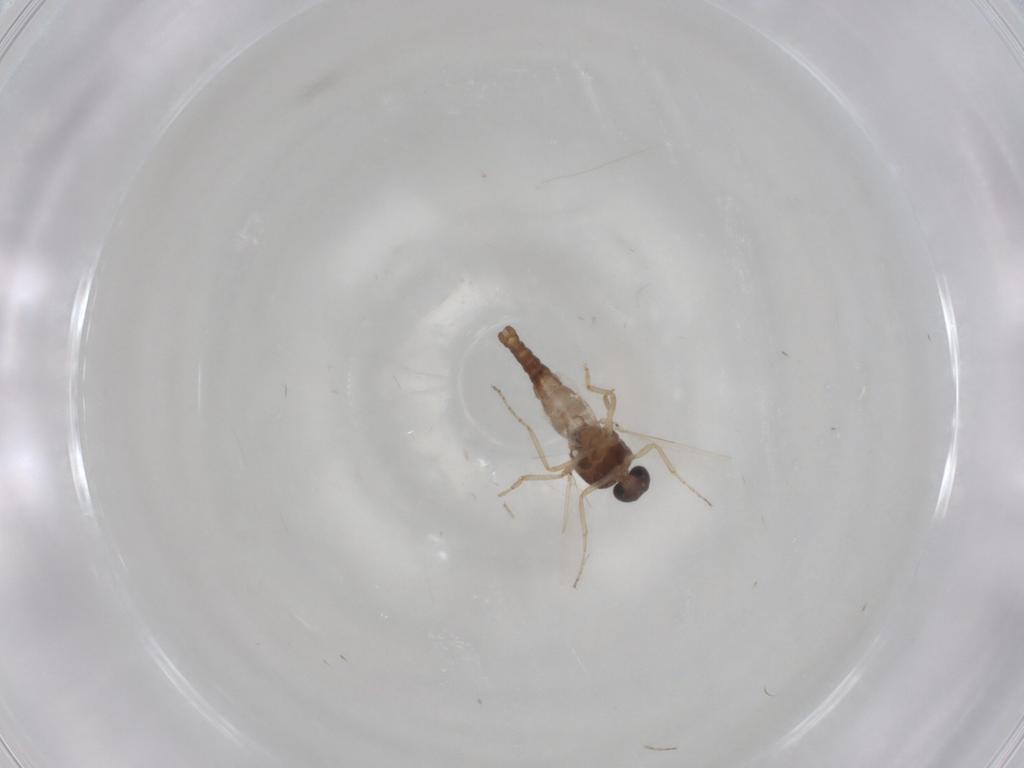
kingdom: Animalia
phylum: Arthropoda
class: Insecta
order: Diptera
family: Ceratopogonidae
